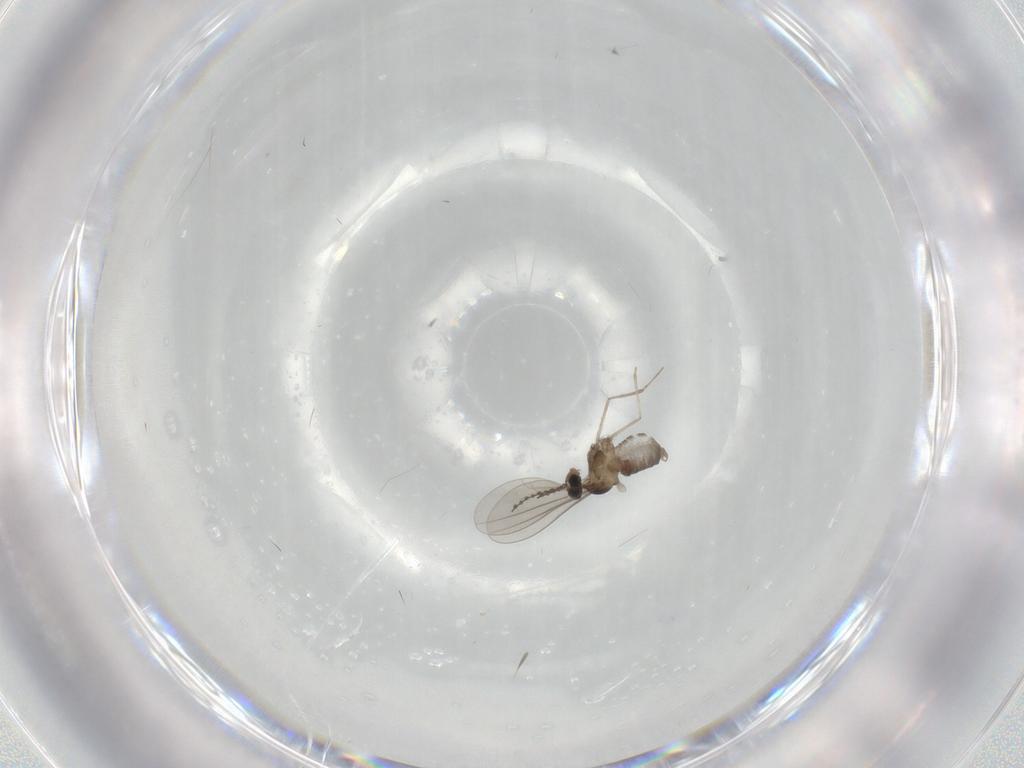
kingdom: Animalia
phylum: Arthropoda
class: Insecta
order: Diptera
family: Cecidomyiidae
